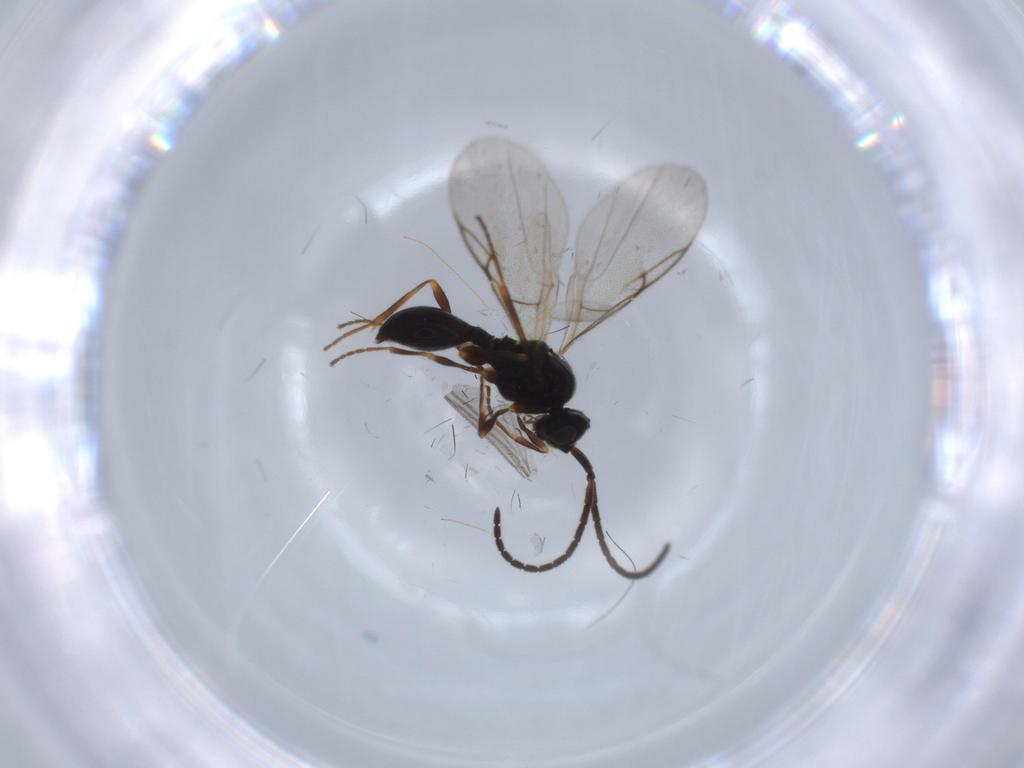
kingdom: Animalia
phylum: Arthropoda
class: Insecta
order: Hymenoptera
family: Diapriidae
